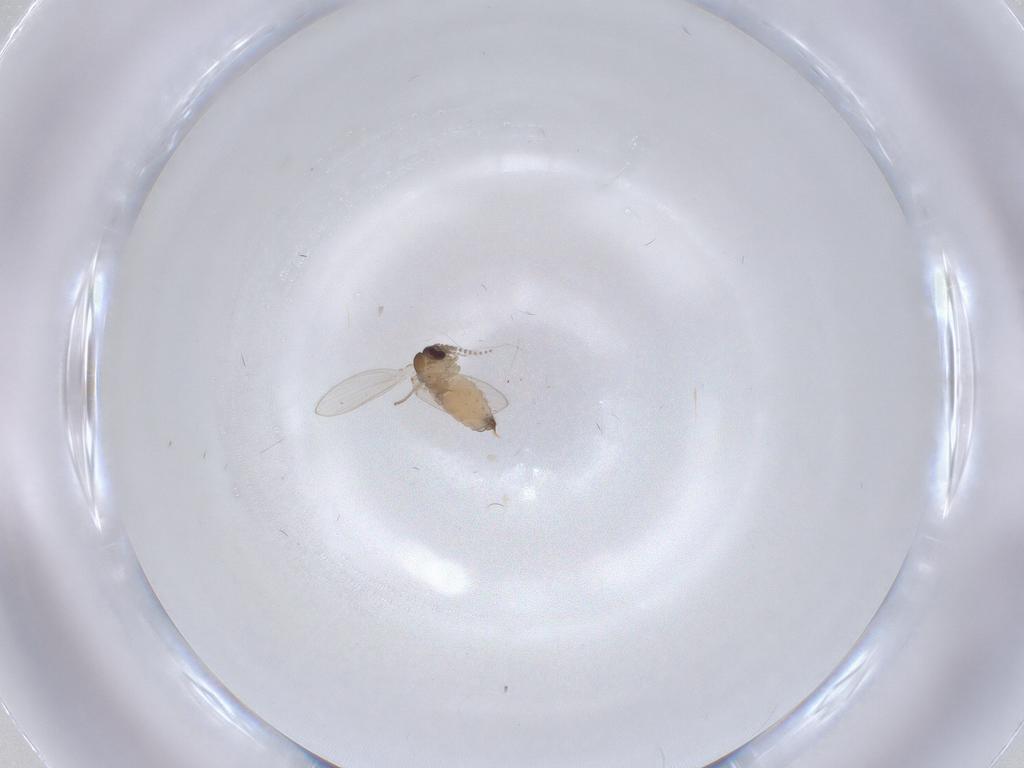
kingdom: Animalia
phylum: Arthropoda
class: Insecta
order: Diptera
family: Psychodidae
